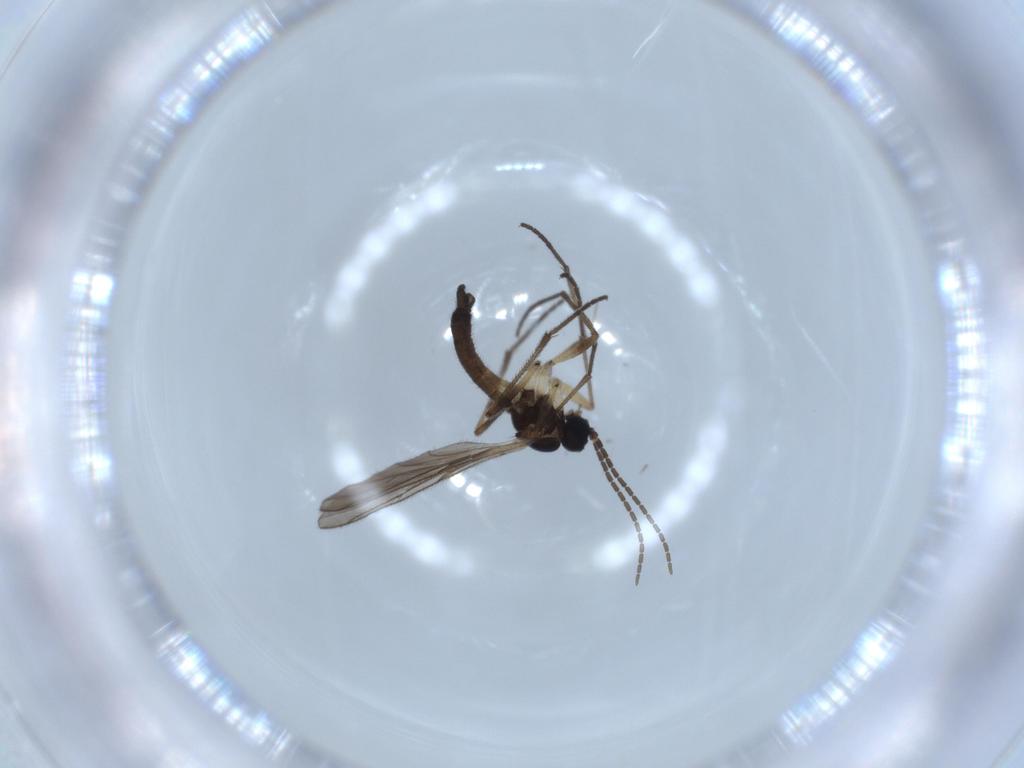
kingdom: Animalia
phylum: Arthropoda
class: Insecta
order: Diptera
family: Sciaridae
